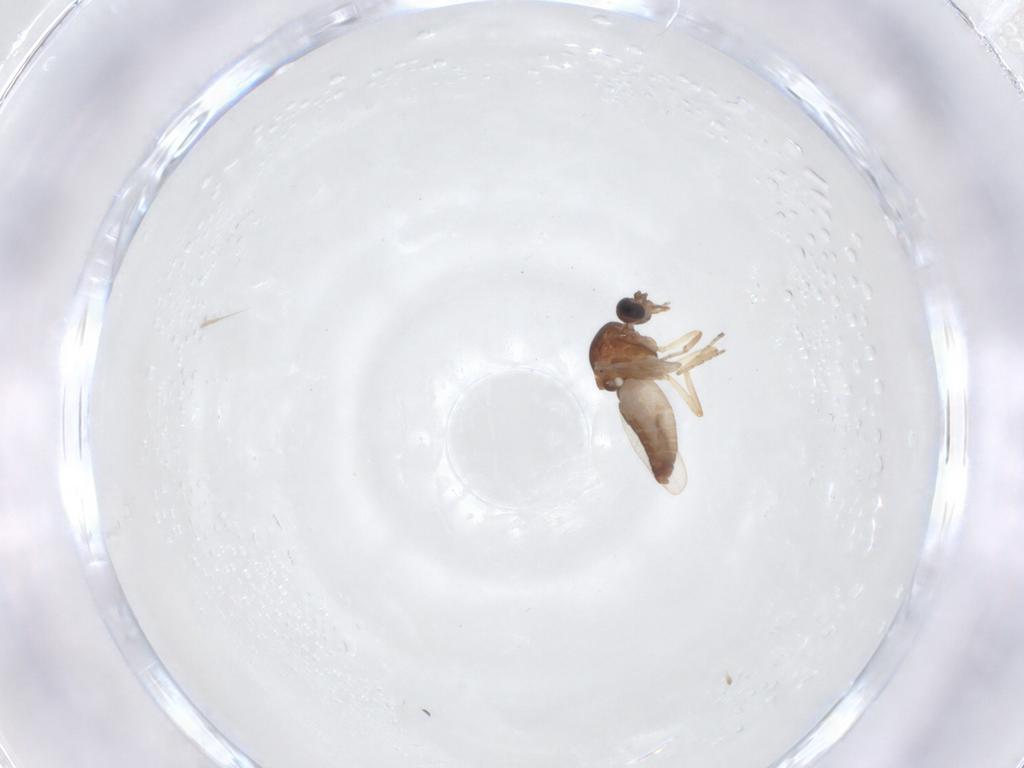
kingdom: Animalia
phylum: Arthropoda
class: Insecta
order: Diptera
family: Ceratopogonidae
